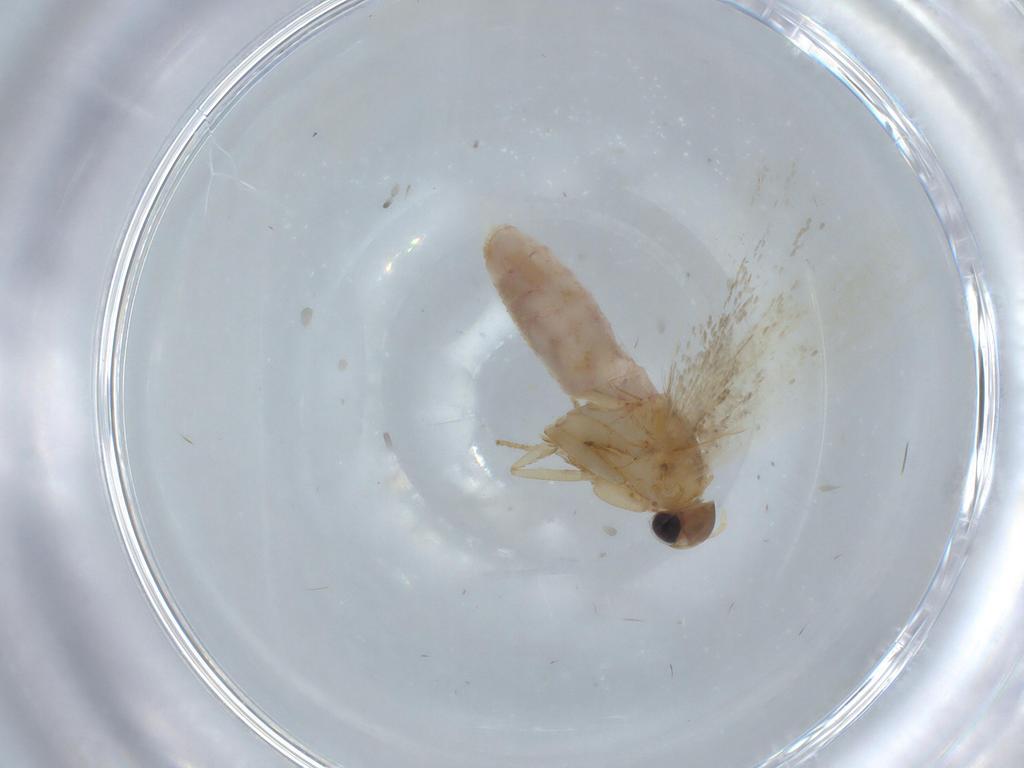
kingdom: Animalia
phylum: Arthropoda
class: Insecta
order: Lepidoptera
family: Gelechiidae
